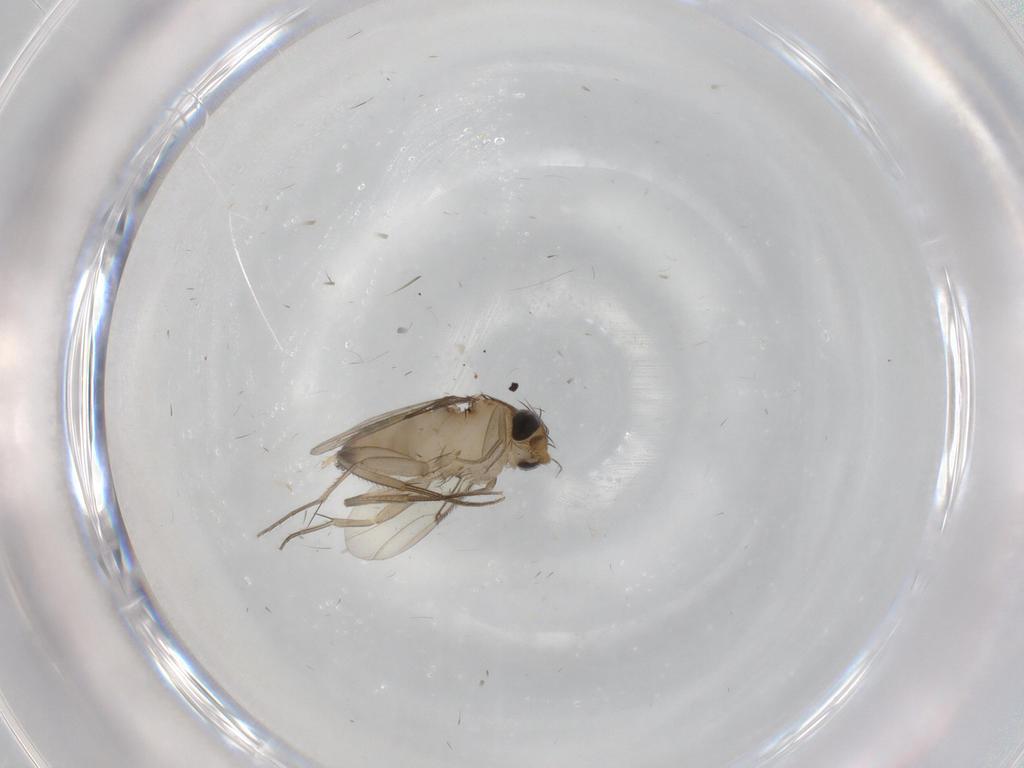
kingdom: Animalia
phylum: Arthropoda
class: Insecta
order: Diptera
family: Phoridae
